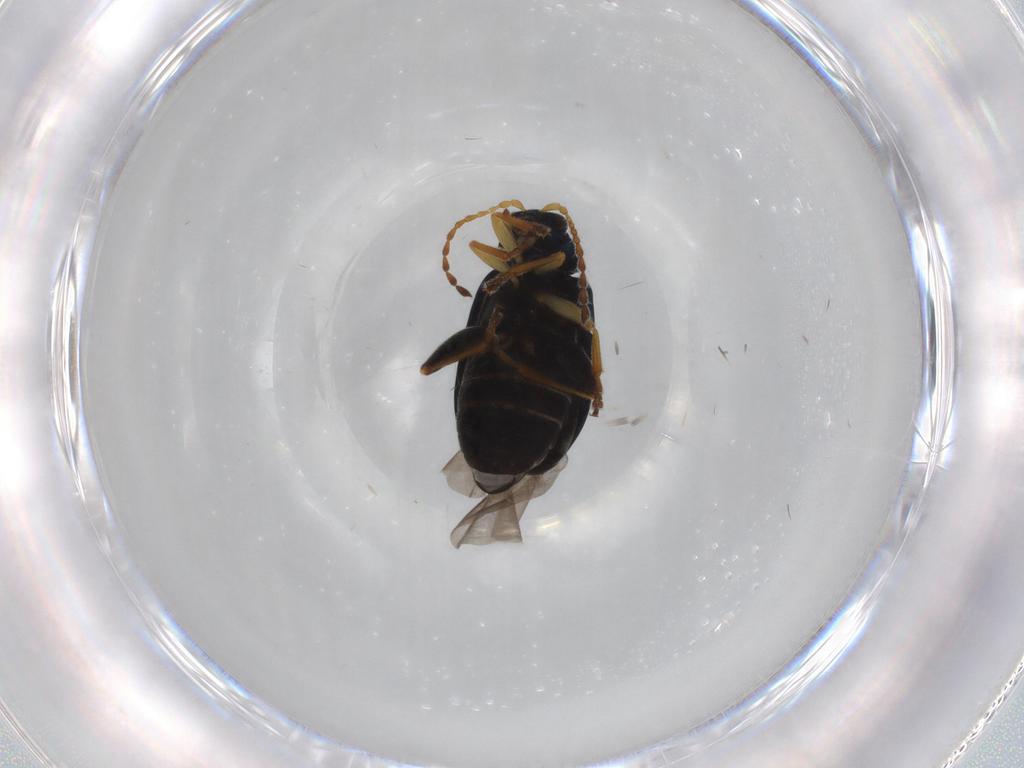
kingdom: Animalia
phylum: Arthropoda
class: Insecta
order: Coleoptera
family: Chrysomelidae
